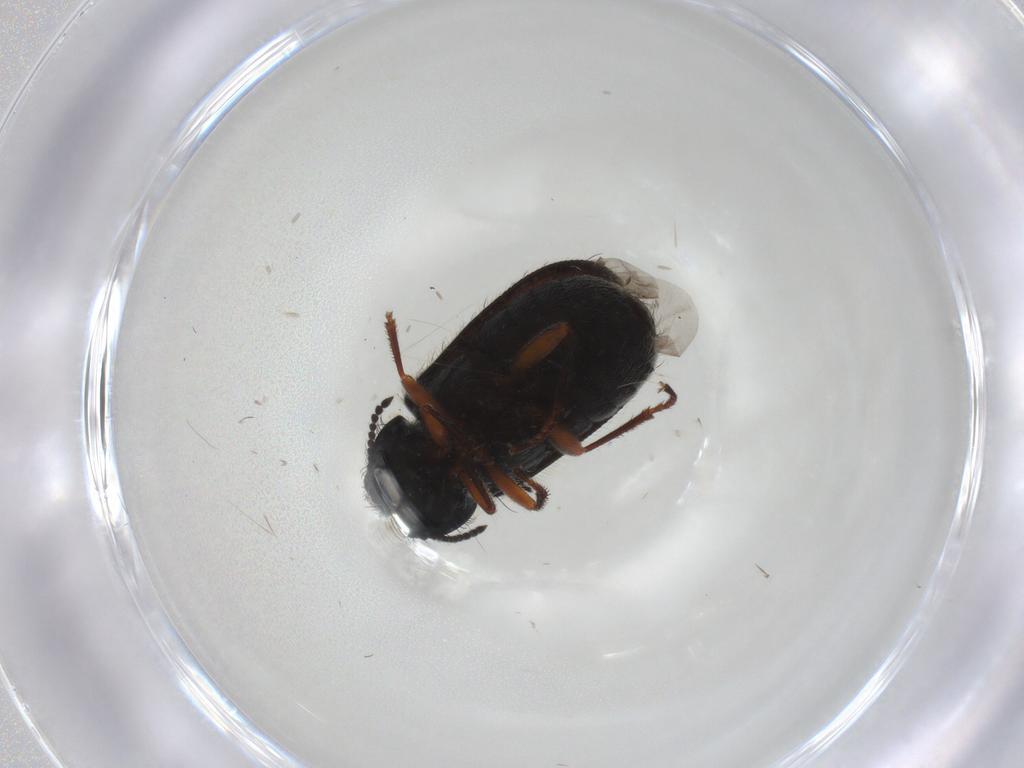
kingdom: Animalia
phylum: Arthropoda
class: Insecta
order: Coleoptera
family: Melyridae
